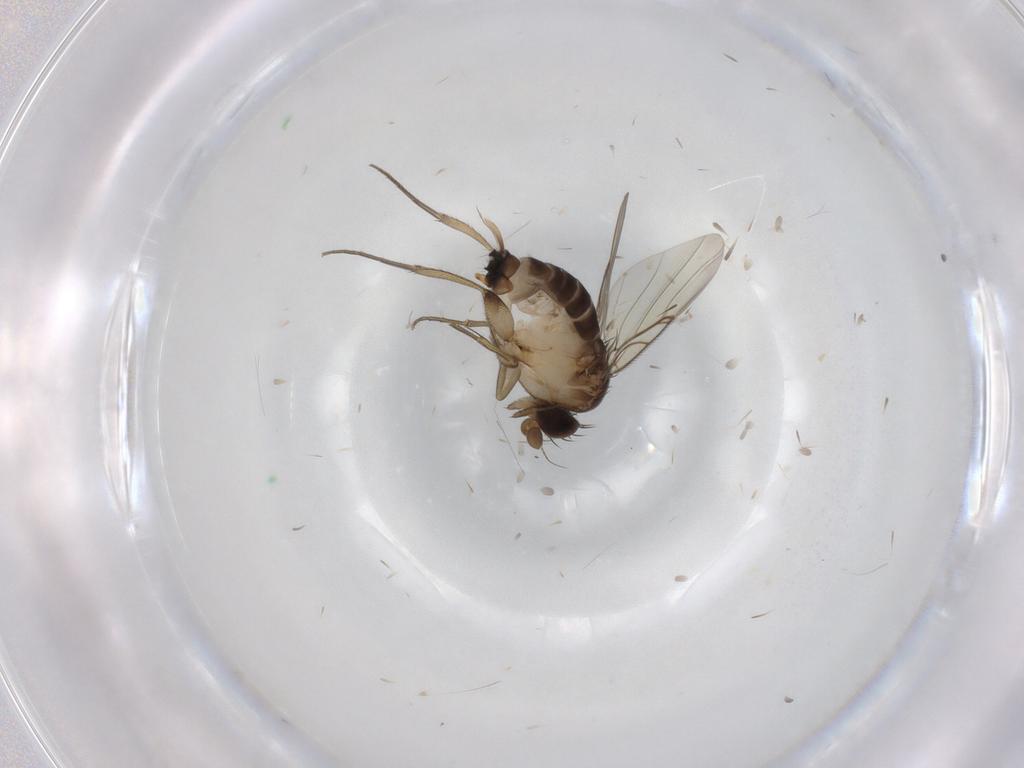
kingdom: Animalia
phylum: Arthropoda
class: Insecta
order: Diptera
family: Phoridae
